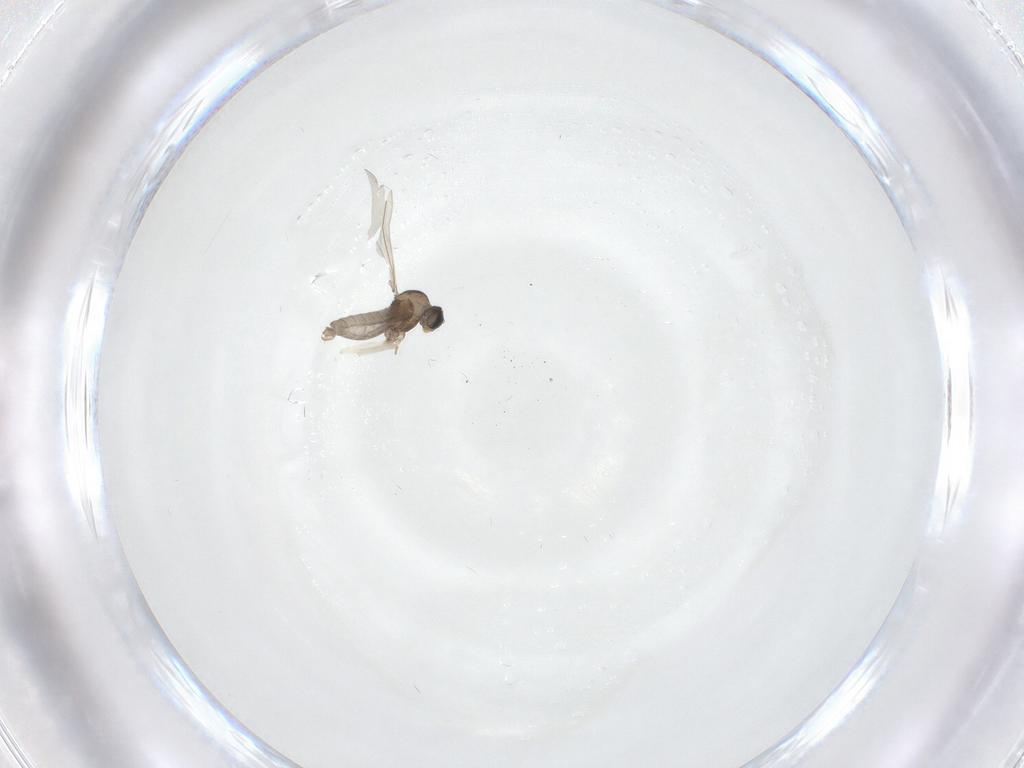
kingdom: Animalia
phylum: Arthropoda
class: Insecta
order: Diptera
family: Cecidomyiidae
